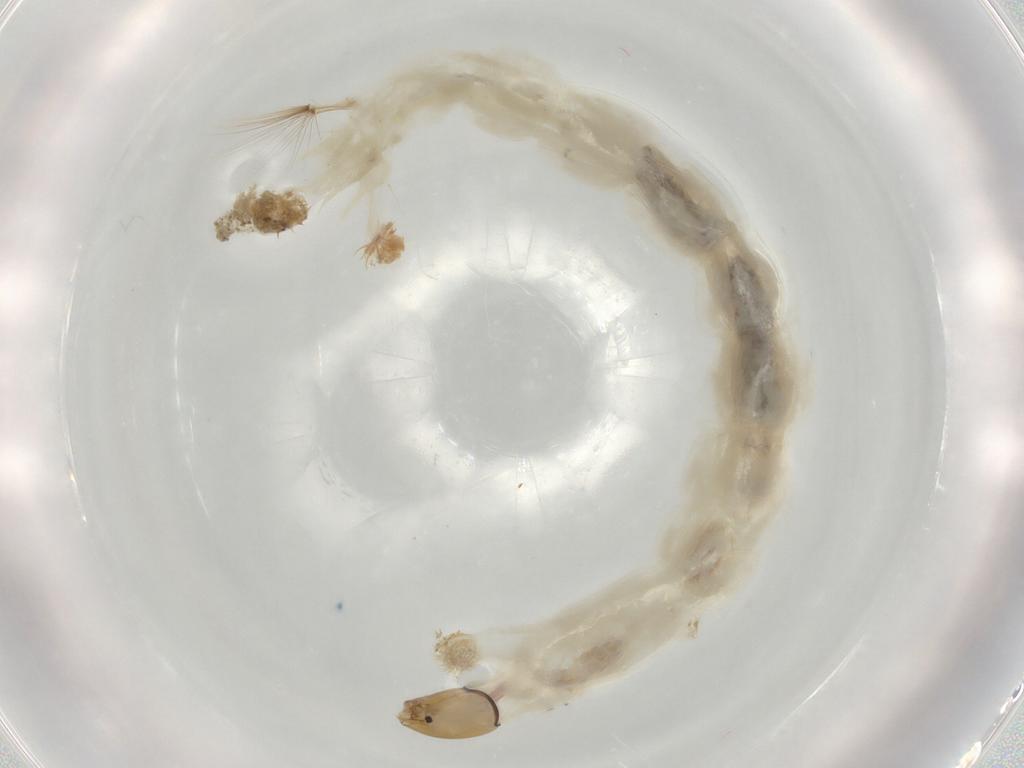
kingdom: Animalia
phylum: Arthropoda
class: Insecta
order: Diptera
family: Chironomidae
